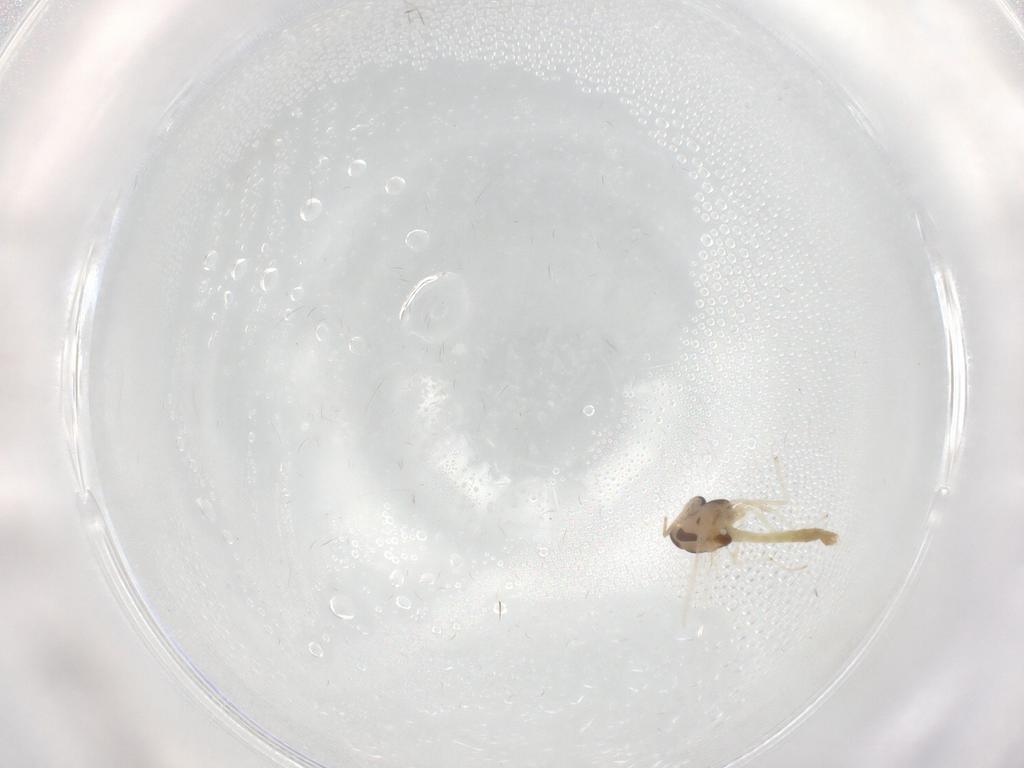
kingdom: Animalia
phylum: Arthropoda
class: Insecta
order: Diptera
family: Chironomidae
